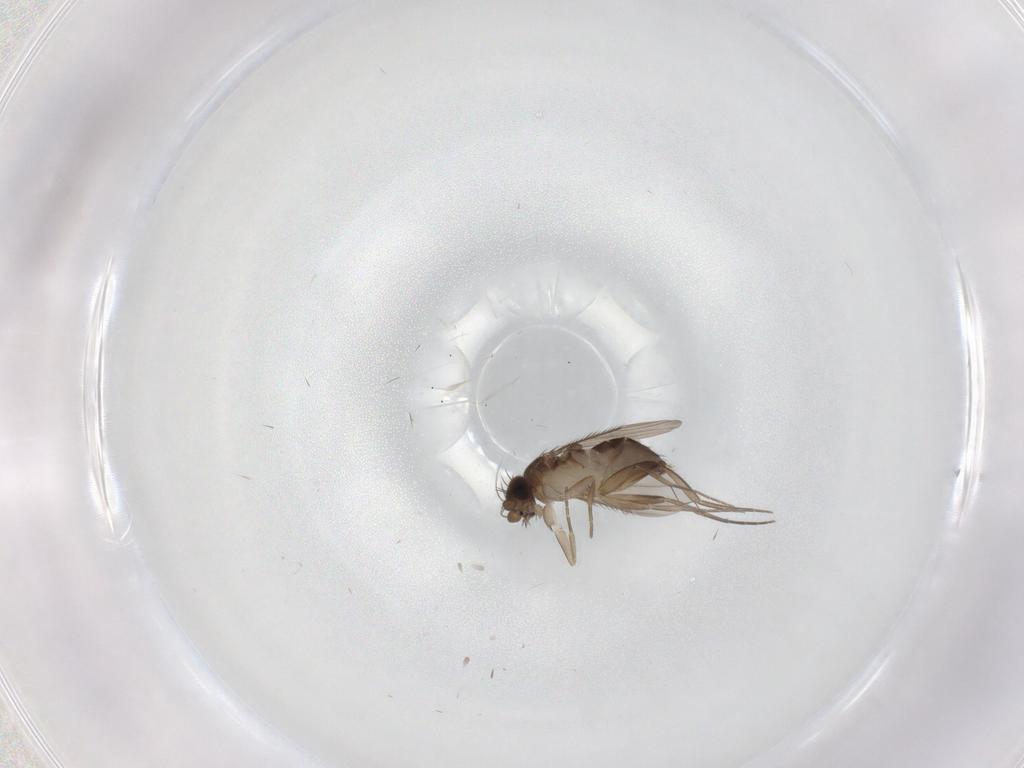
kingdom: Animalia
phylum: Arthropoda
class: Insecta
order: Diptera
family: Phoridae
